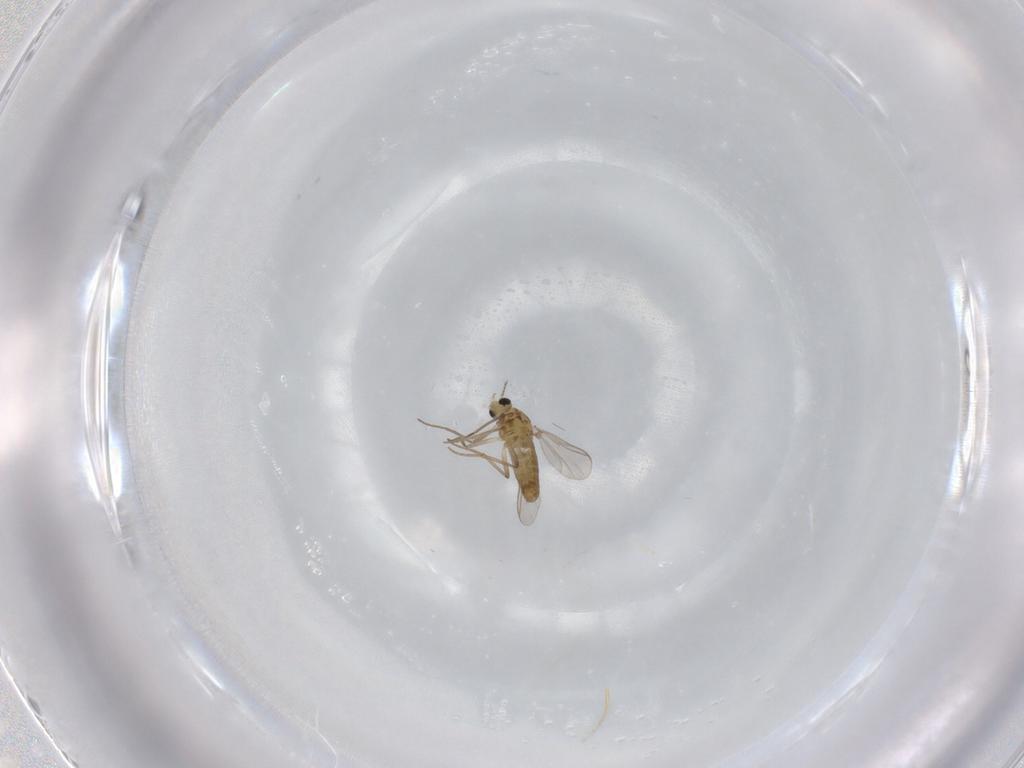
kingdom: Animalia
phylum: Arthropoda
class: Insecta
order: Diptera
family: Chironomidae
